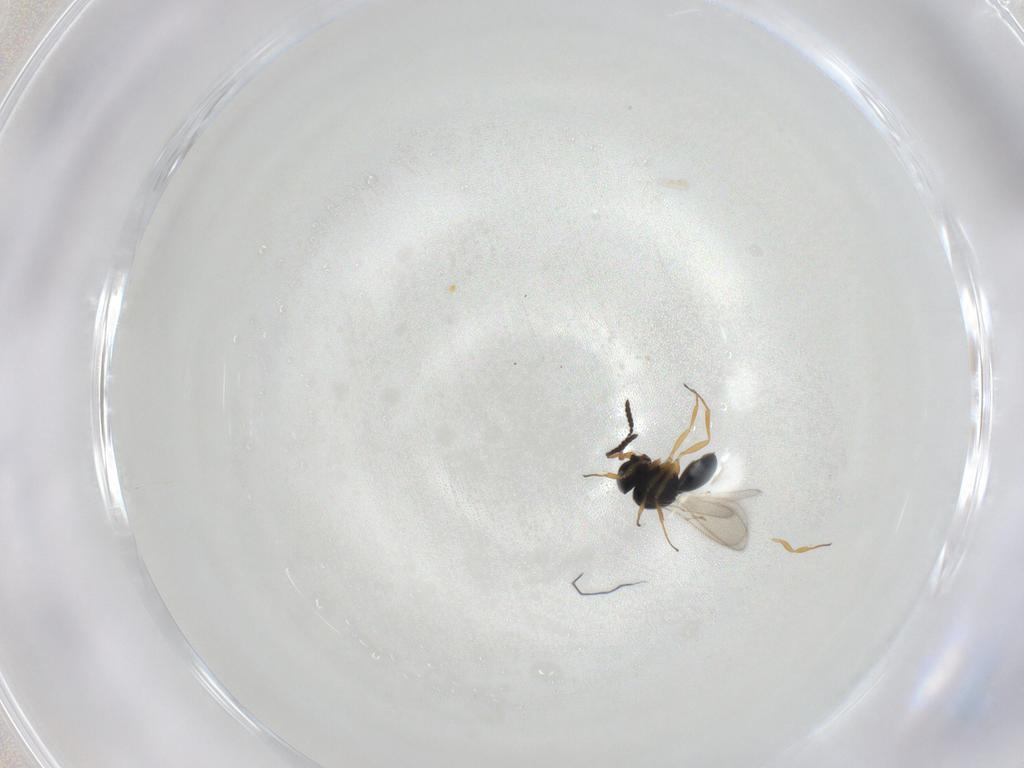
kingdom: Animalia
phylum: Arthropoda
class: Insecta
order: Hymenoptera
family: Scelionidae
